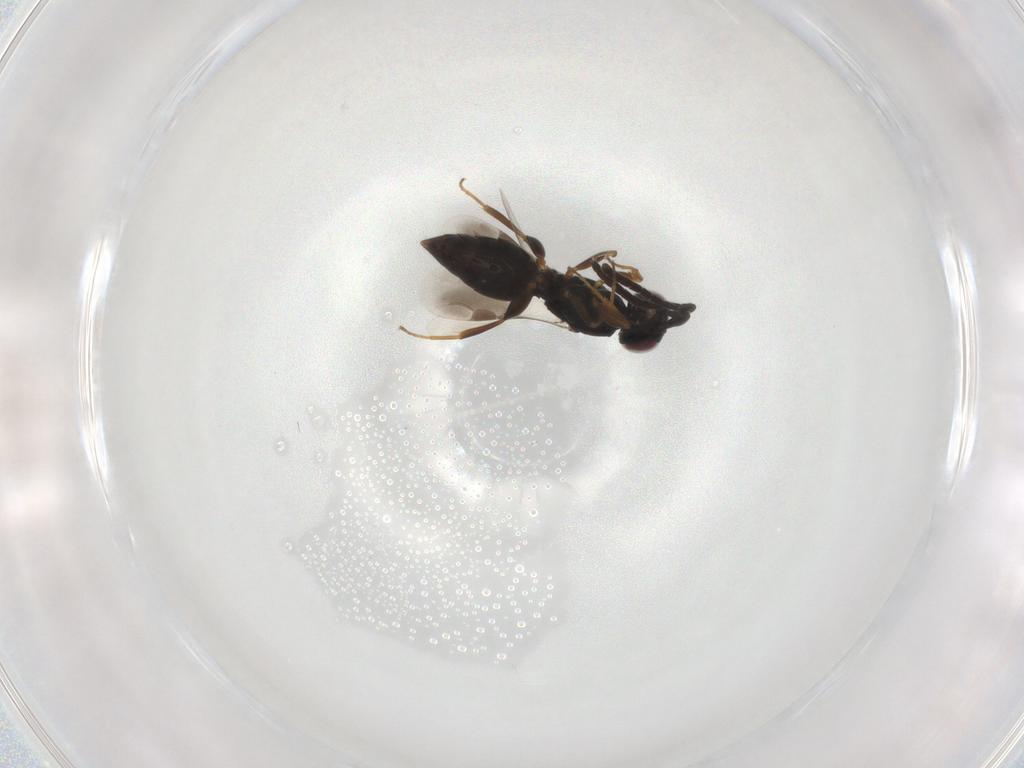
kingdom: Animalia
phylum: Arthropoda
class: Insecta
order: Hymenoptera
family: Megaspilidae
